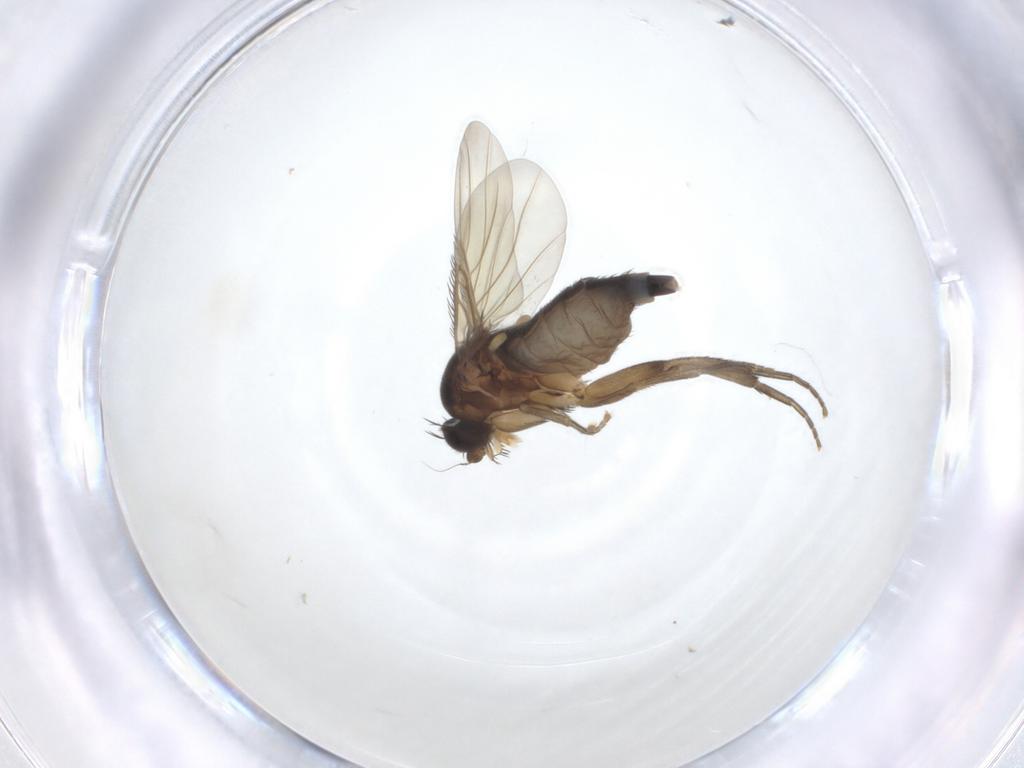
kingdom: Animalia
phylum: Arthropoda
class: Insecta
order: Diptera
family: Phoridae
